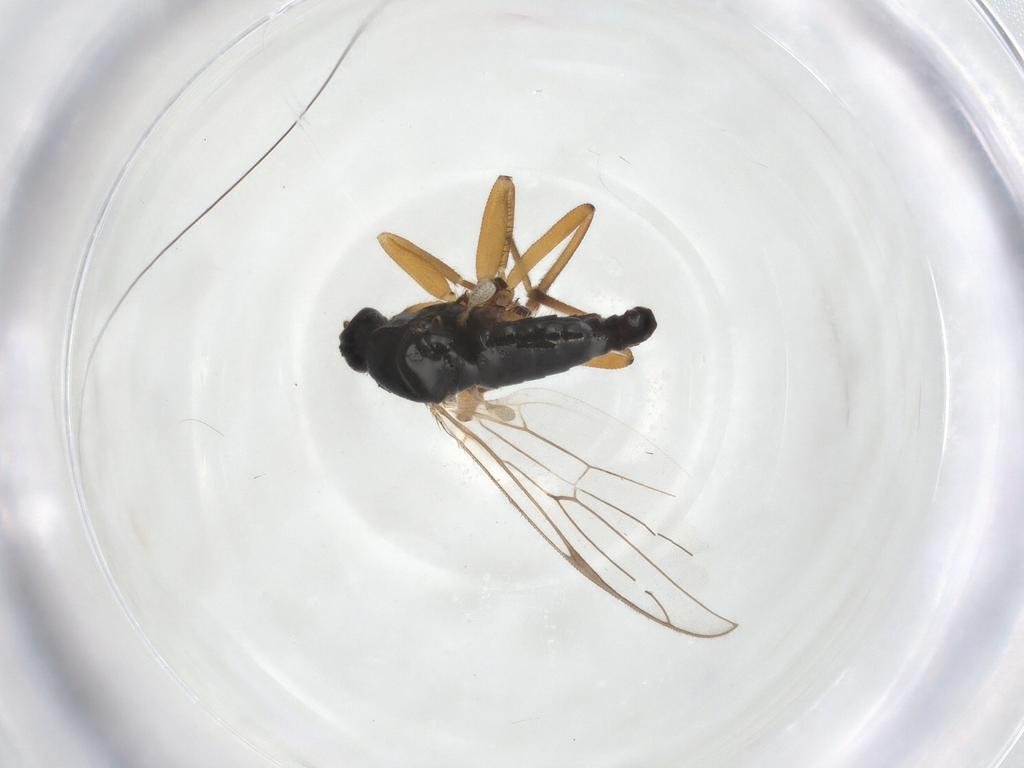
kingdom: Animalia
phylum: Arthropoda
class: Insecta
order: Diptera
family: Hybotidae
